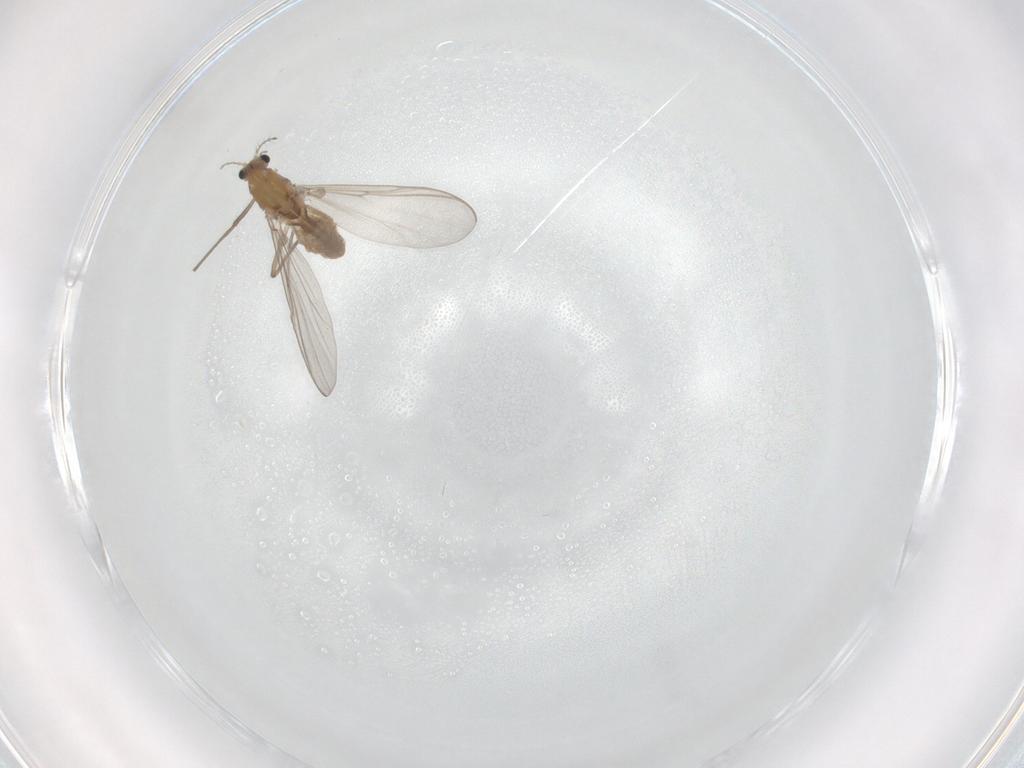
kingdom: Animalia
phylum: Arthropoda
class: Insecta
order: Diptera
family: Chironomidae
